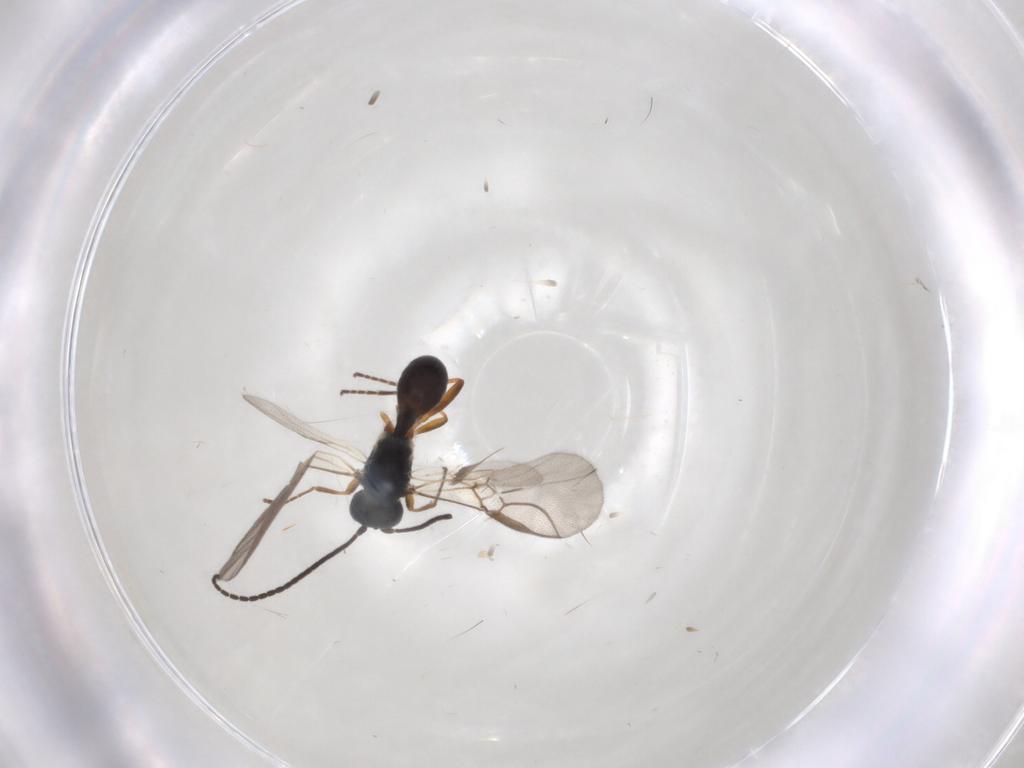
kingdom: Animalia
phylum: Arthropoda
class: Insecta
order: Hymenoptera
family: Braconidae
